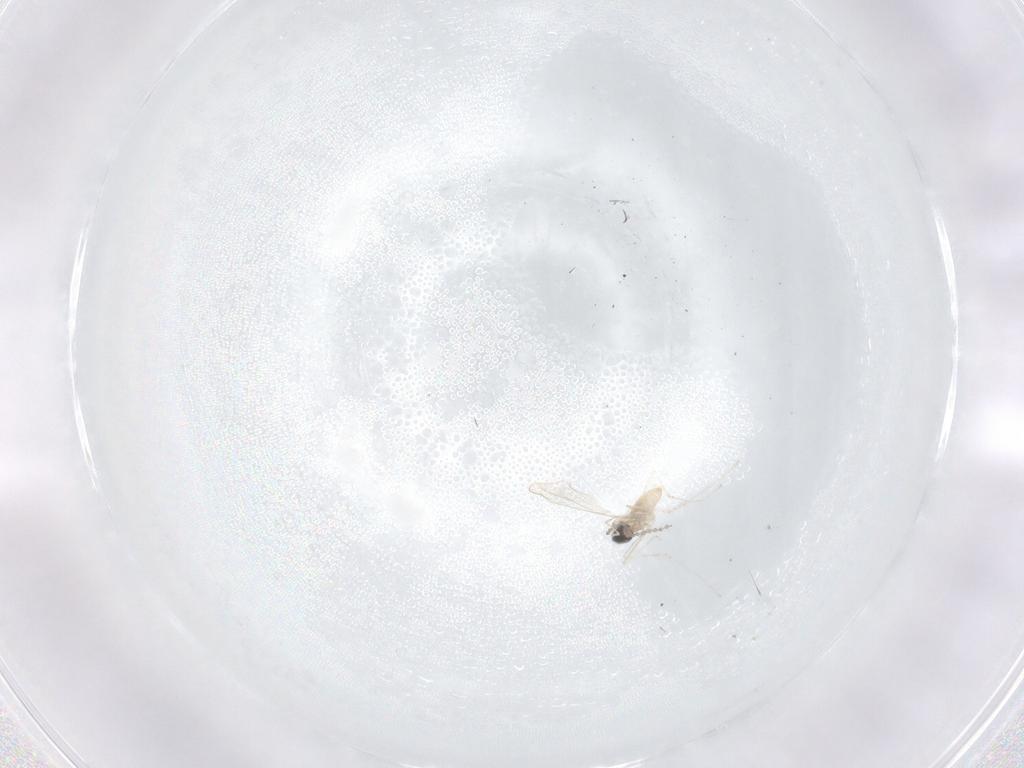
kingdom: Animalia
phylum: Arthropoda
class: Insecta
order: Diptera
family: Cecidomyiidae
